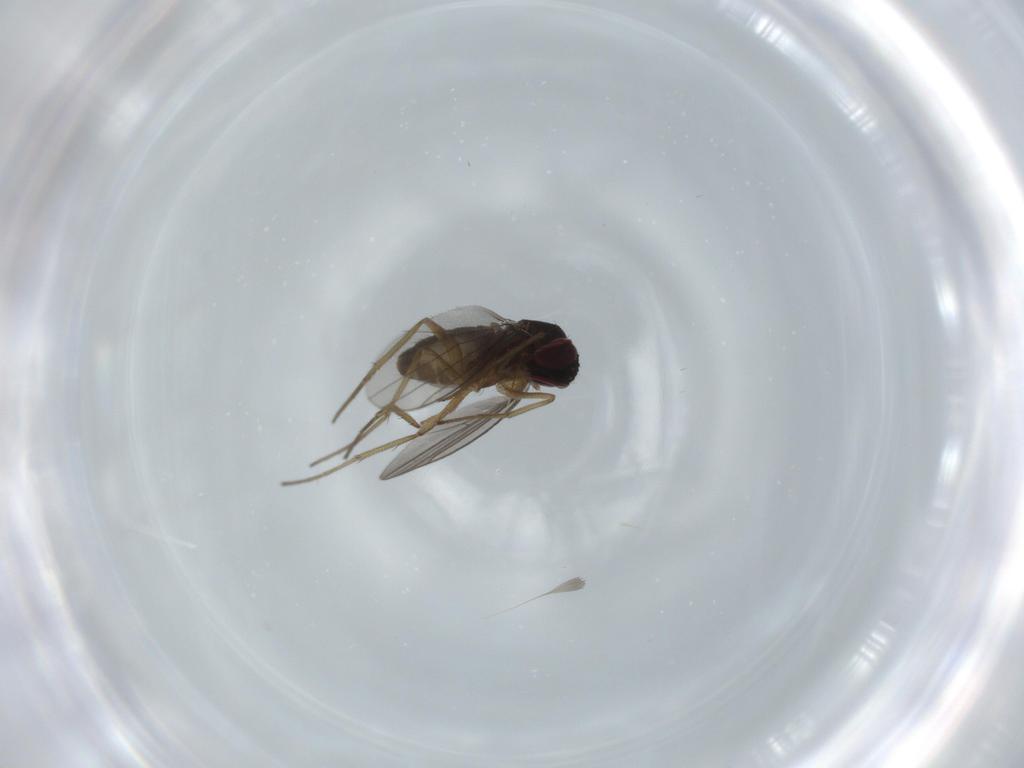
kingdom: Animalia
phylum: Arthropoda
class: Insecta
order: Diptera
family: Dolichopodidae
